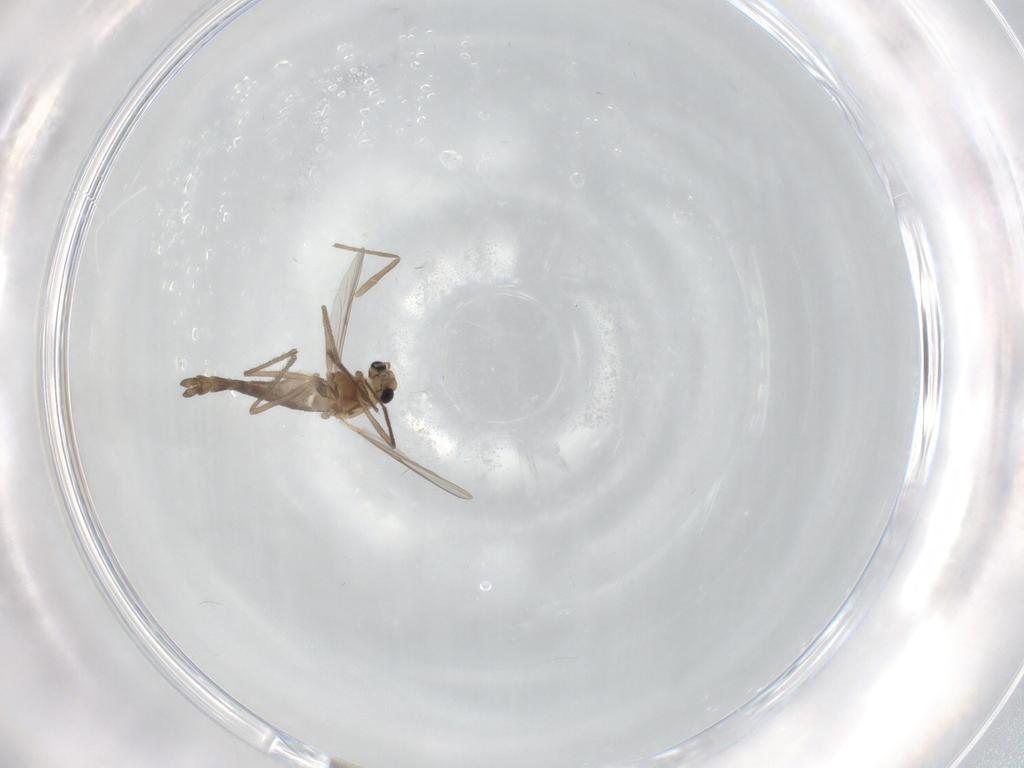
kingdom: Animalia
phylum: Arthropoda
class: Insecta
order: Diptera
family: Chironomidae
